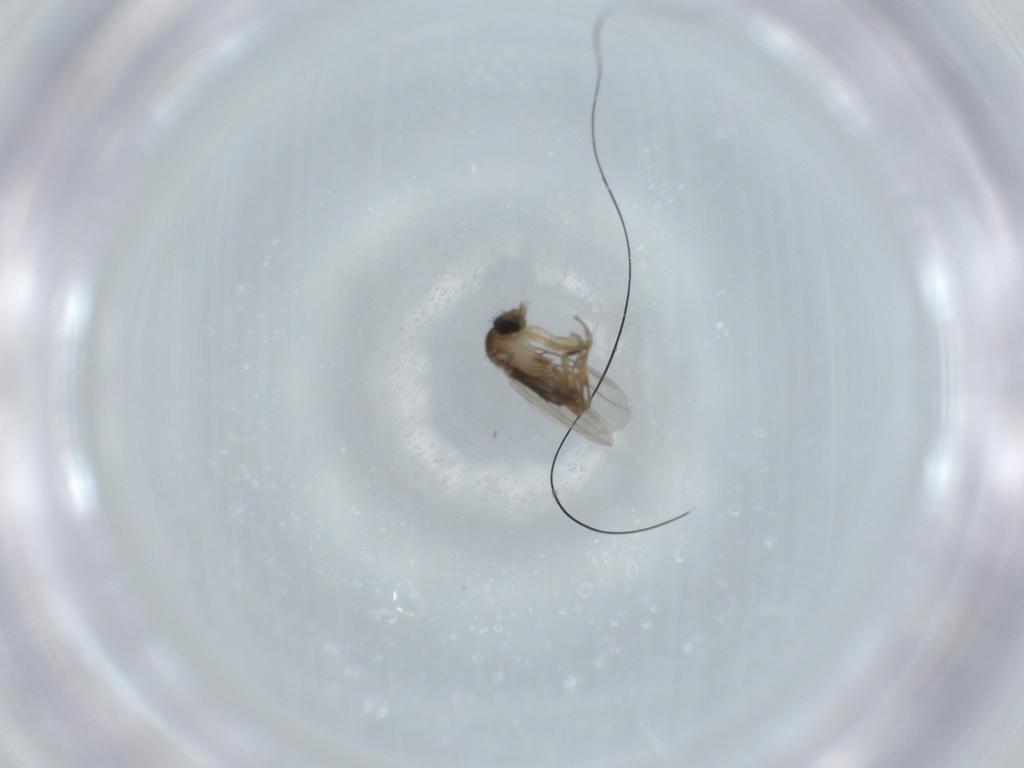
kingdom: Animalia
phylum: Arthropoda
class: Insecta
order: Diptera
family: Phoridae
